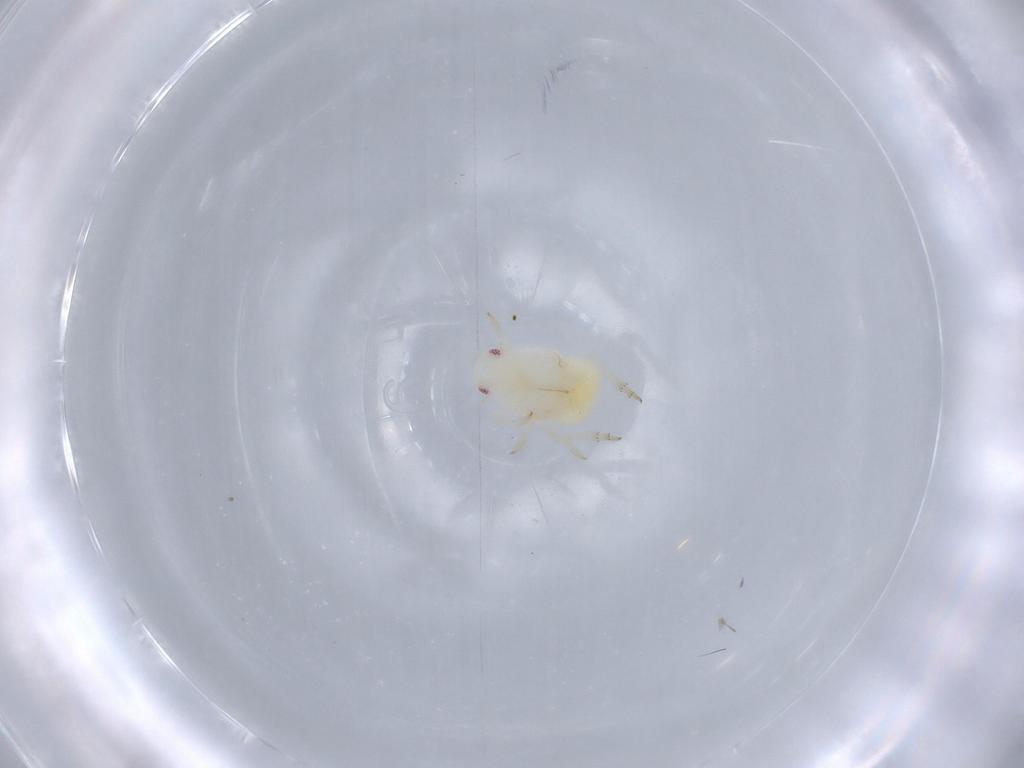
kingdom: Animalia
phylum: Arthropoda
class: Insecta
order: Hemiptera
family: Flatidae
